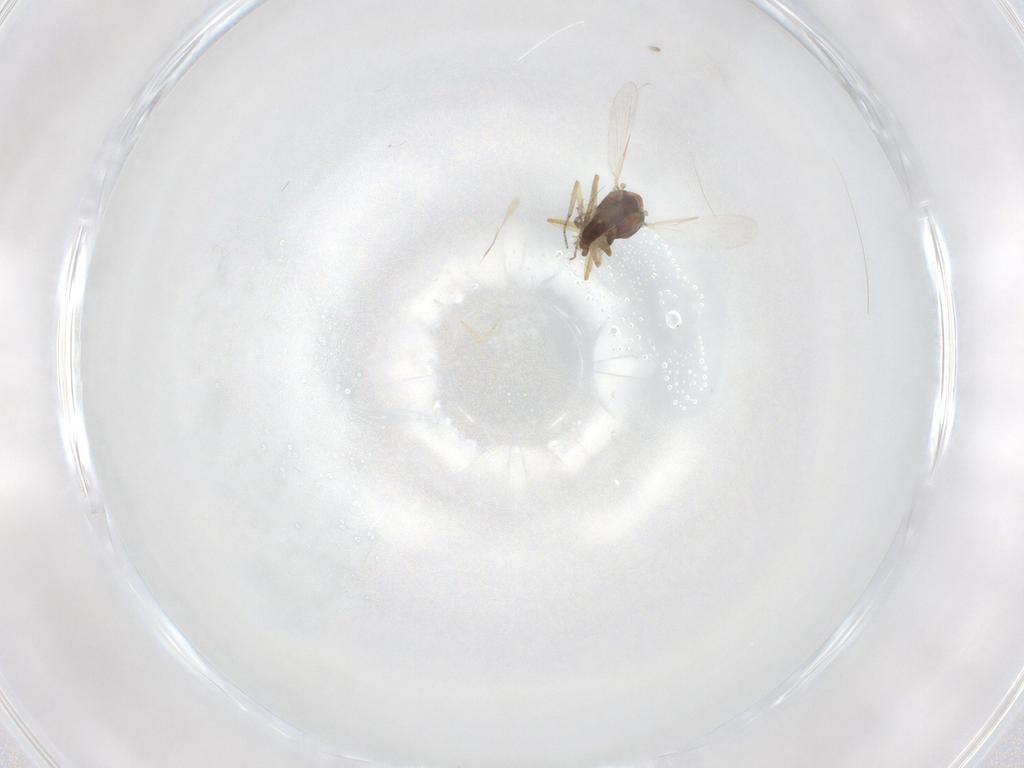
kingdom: Animalia
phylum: Arthropoda
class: Insecta
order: Diptera
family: Ceratopogonidae
